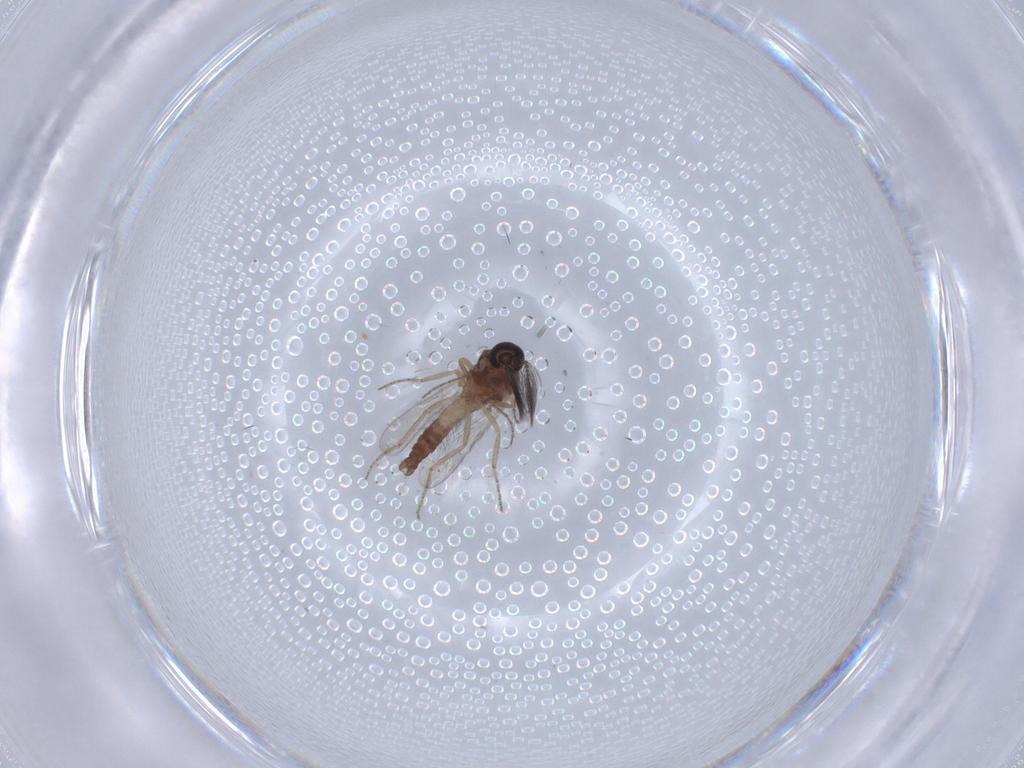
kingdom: Animalia
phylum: Arthropoda
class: Insecta
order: Diptera
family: Ceratopogonidae
